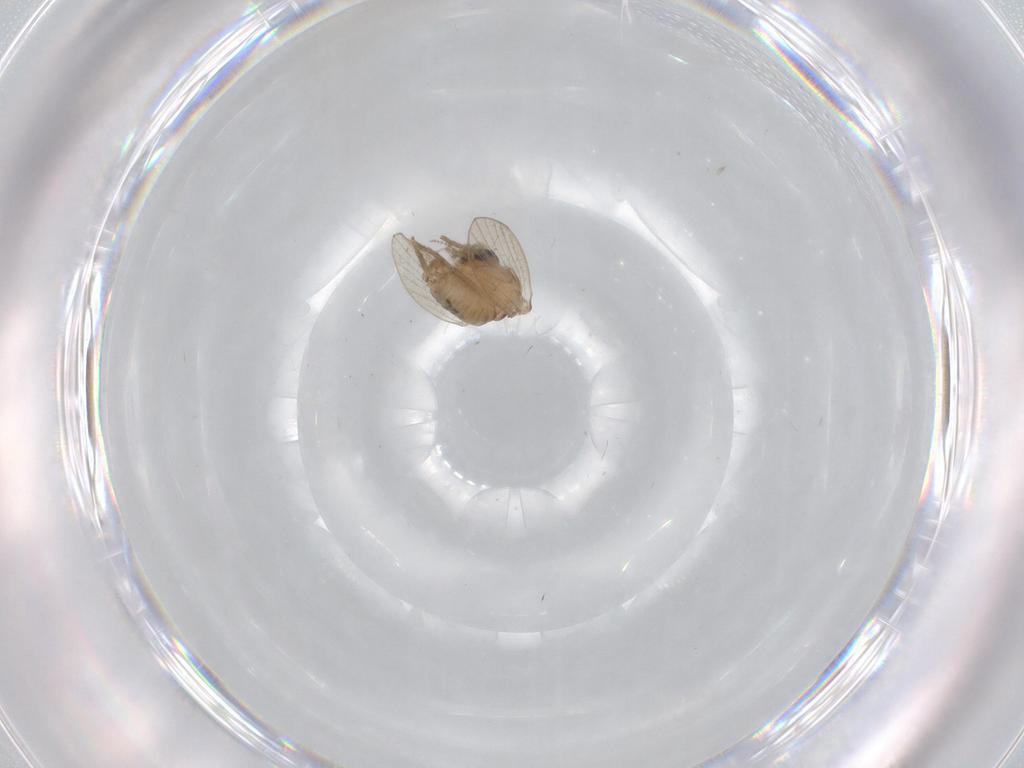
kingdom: Animalia
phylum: Arthropoda
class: Insecta
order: Diptera
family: Psychodidae
